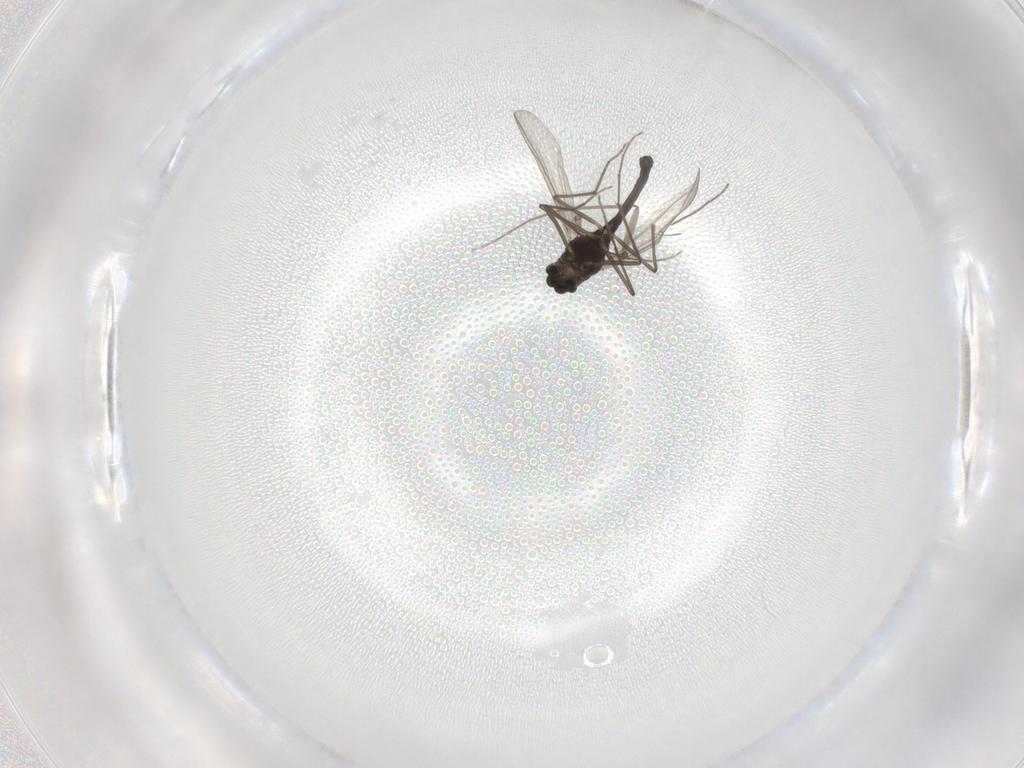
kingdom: Animalia
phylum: Arthropoda
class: Insecta
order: Diptera
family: Chironomidae
